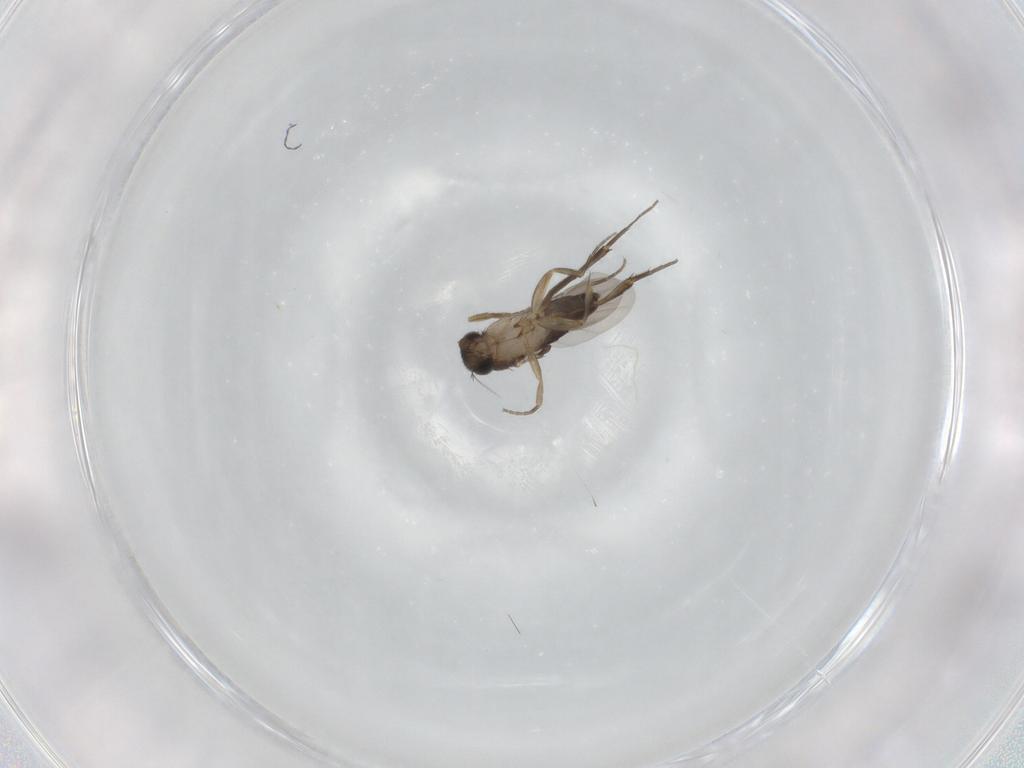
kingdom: Animalia
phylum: Arthropoda
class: Insecta
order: Diptera
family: Phoridae
